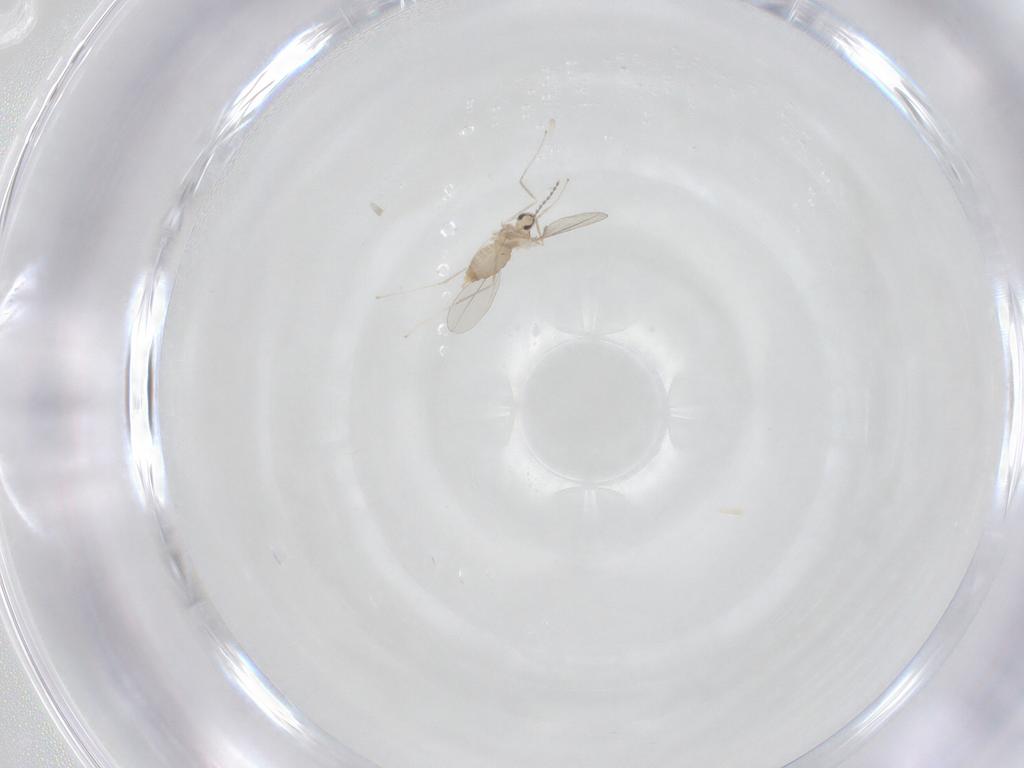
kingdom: Animalia
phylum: Arthropoda
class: Insecta
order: Diptera
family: Cecidomyiidae
